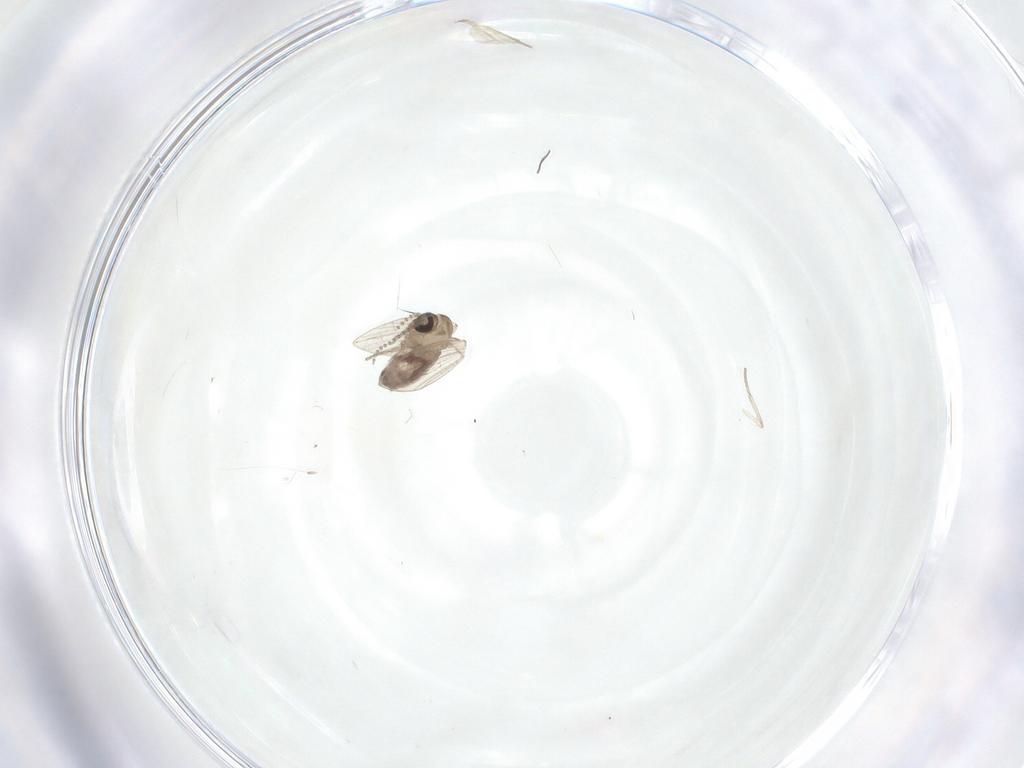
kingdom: Animalia
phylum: Arthropoda
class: Insecta
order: Diptera
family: Psychodidae
